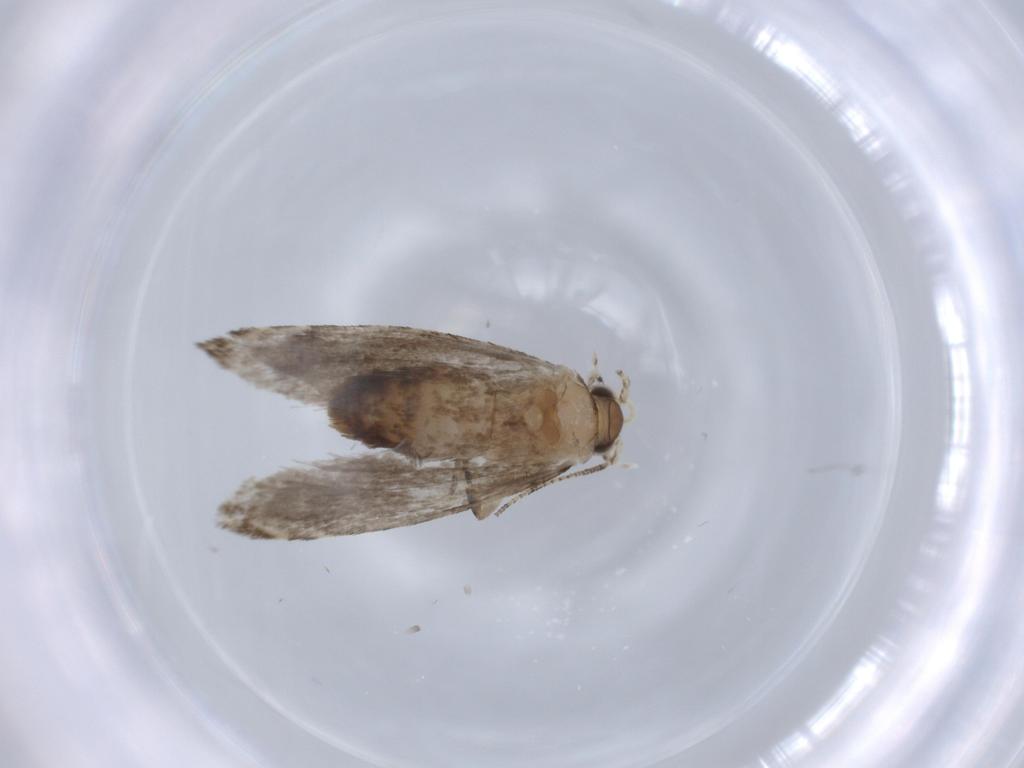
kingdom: Animalia
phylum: Arthropoda
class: Insecta
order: Lepidoptera
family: Tineidae
